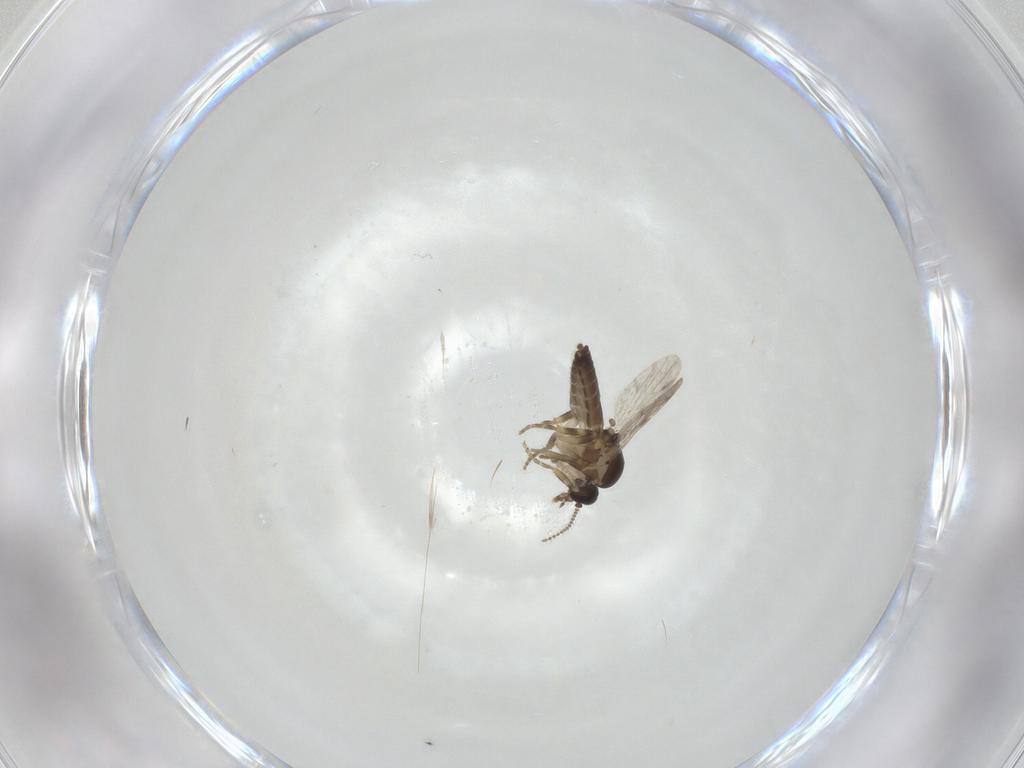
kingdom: Animalia
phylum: Arthropoda
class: Insecta
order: Diptera
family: Ceratopogonidae
